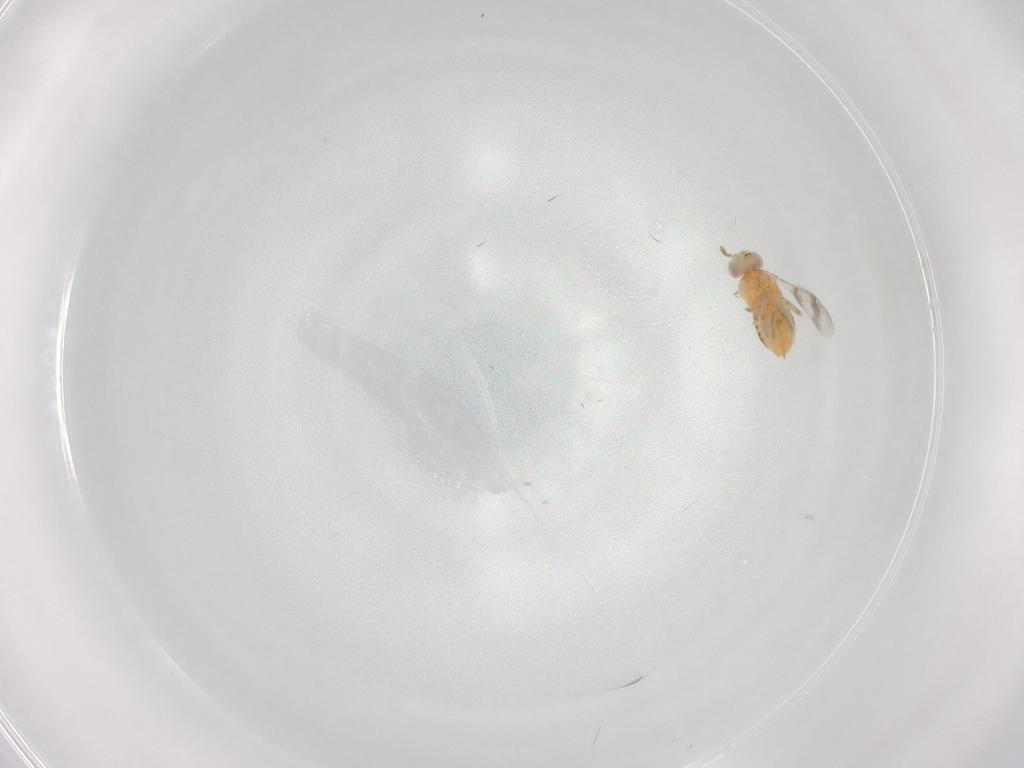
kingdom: Animalia
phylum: Arthropoda
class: Insecta
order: Hymenoptera
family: Aphelinidae
